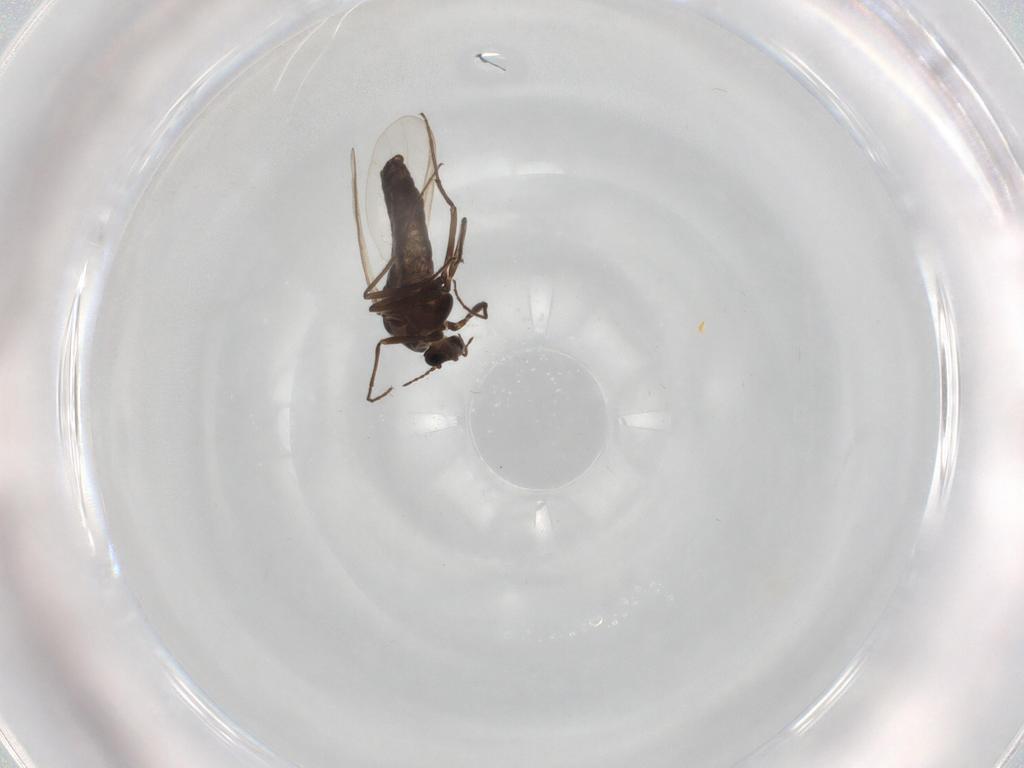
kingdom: Animalia
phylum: Arthropoda
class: Insecta
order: Diptera
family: Chironomidae
